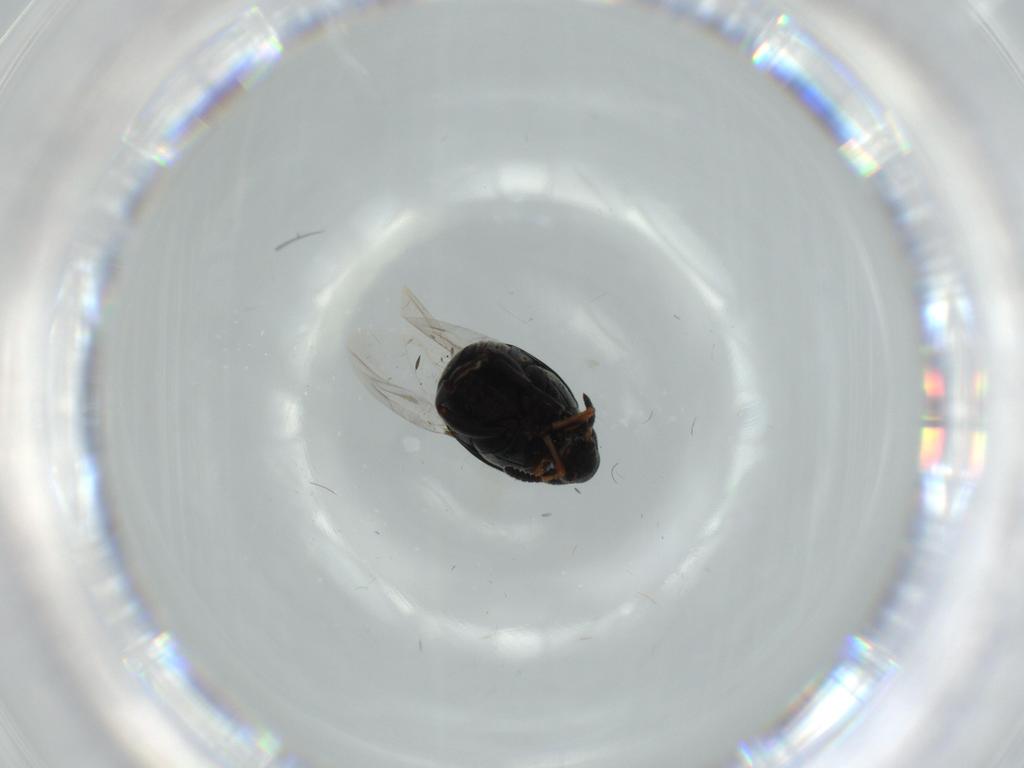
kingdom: Animalia
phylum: Arthropoda
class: Insecta
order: Coleoptera
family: Chrysomelidae
